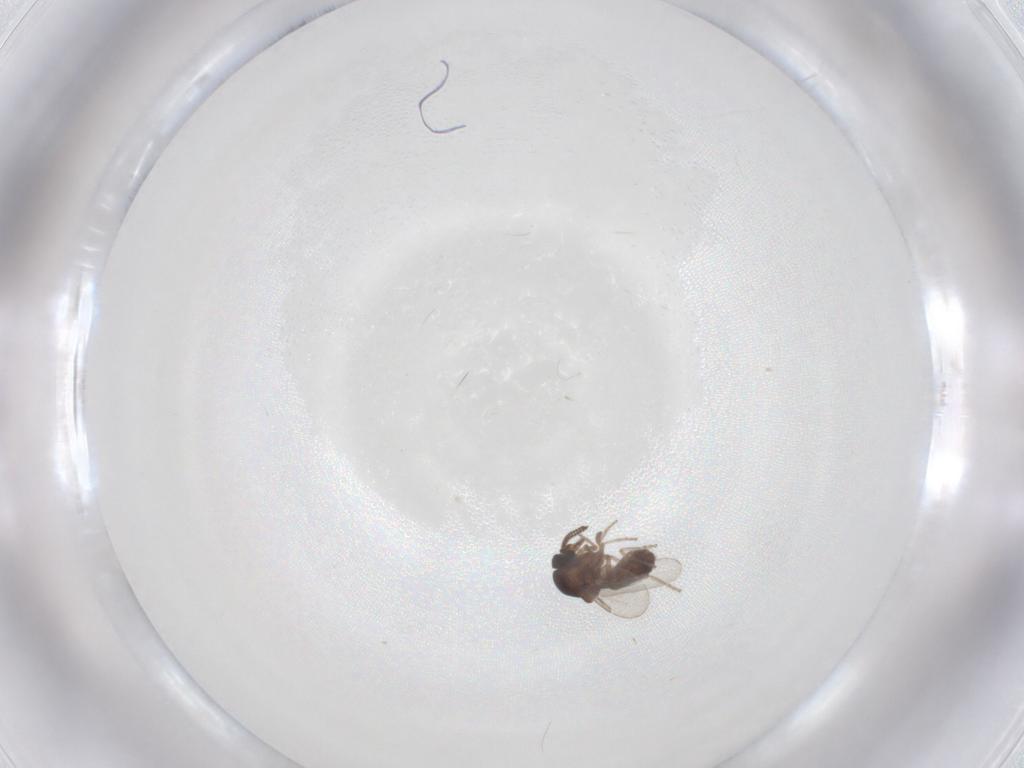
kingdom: Animalia
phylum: Arthropoda
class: Insecta
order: Diptera
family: Ceratopogonidae
